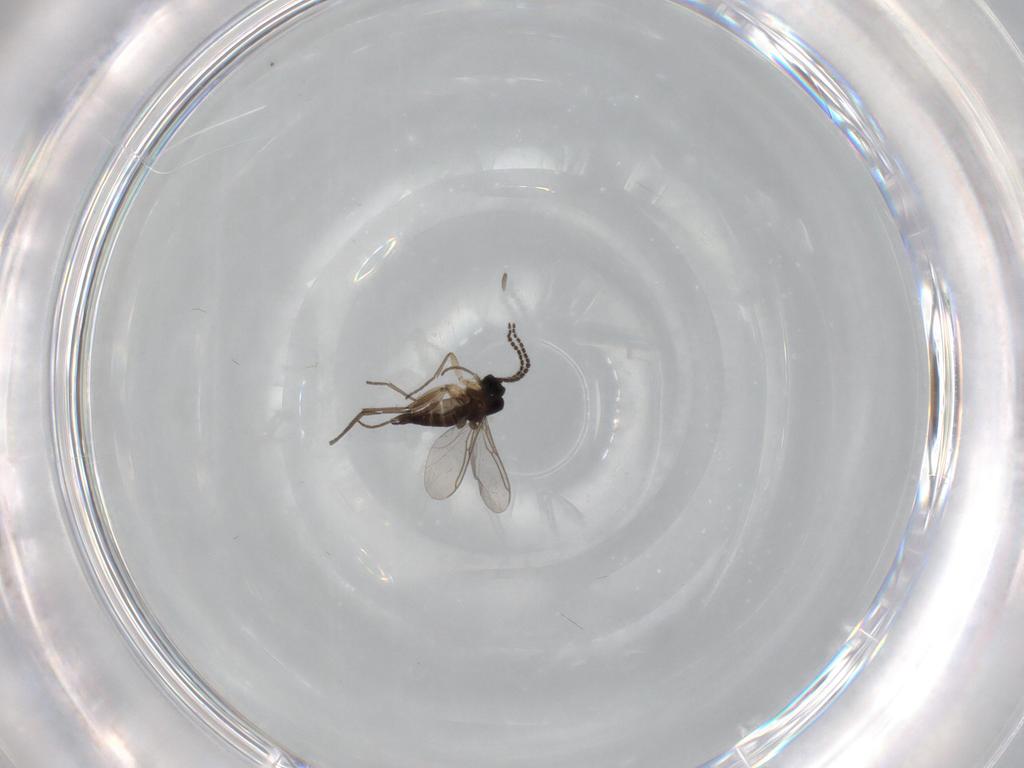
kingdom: Animalia
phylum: Arthropoda
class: Insecta
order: Diptera
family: Sciaridae
